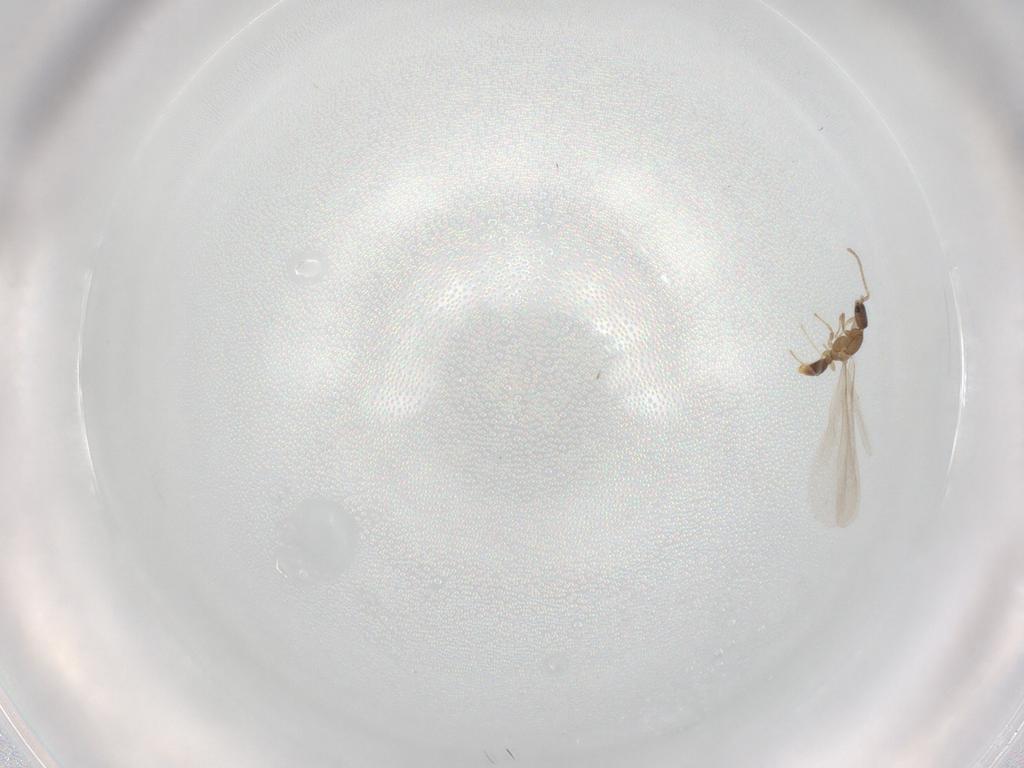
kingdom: Animalia
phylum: Arthropoda
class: Insecta
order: Hymenoptera
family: Formicidae
